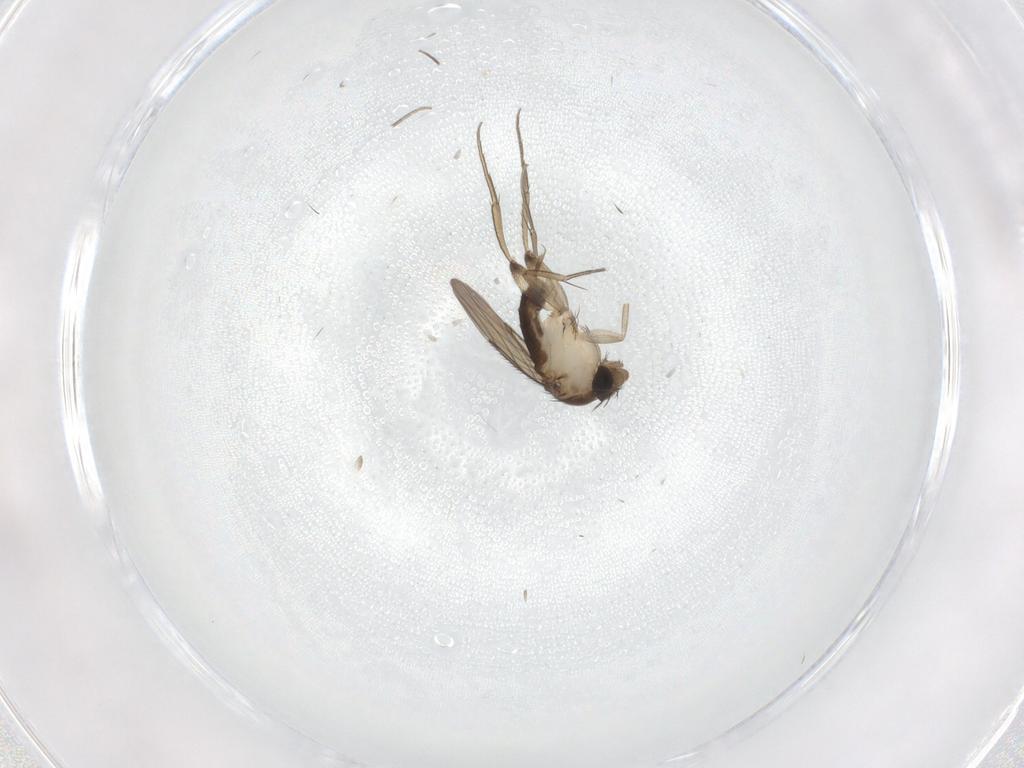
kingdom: Animalia
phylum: Arthropoda
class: Insecta
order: Diptera
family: Phoridae
